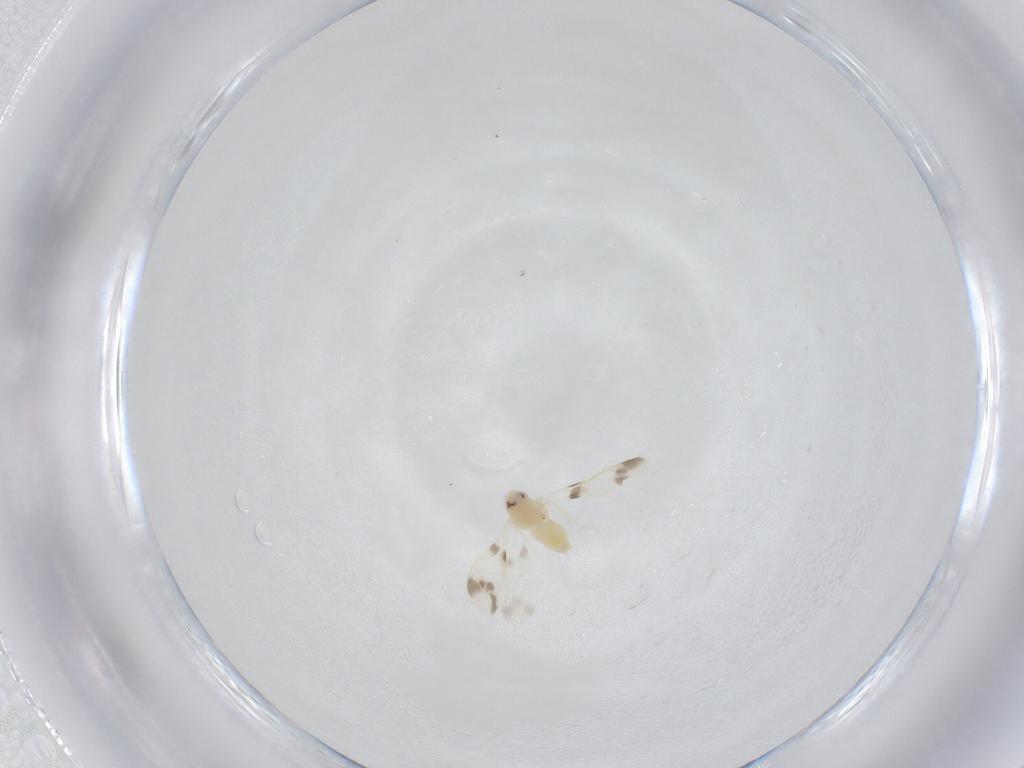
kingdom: Animalia
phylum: Arthropoda
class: Insecta
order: Hemiptera
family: Aleyrodidae
